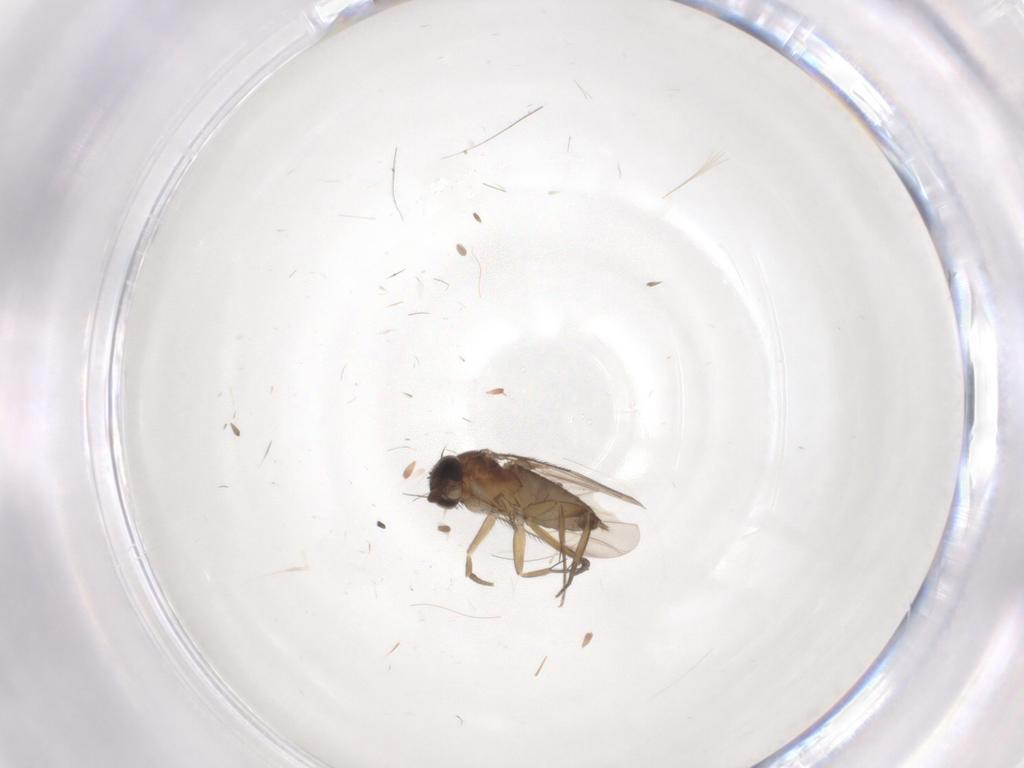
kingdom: Animalia
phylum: Arthropoda
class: Insecta
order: Diptera
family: Phoridae
